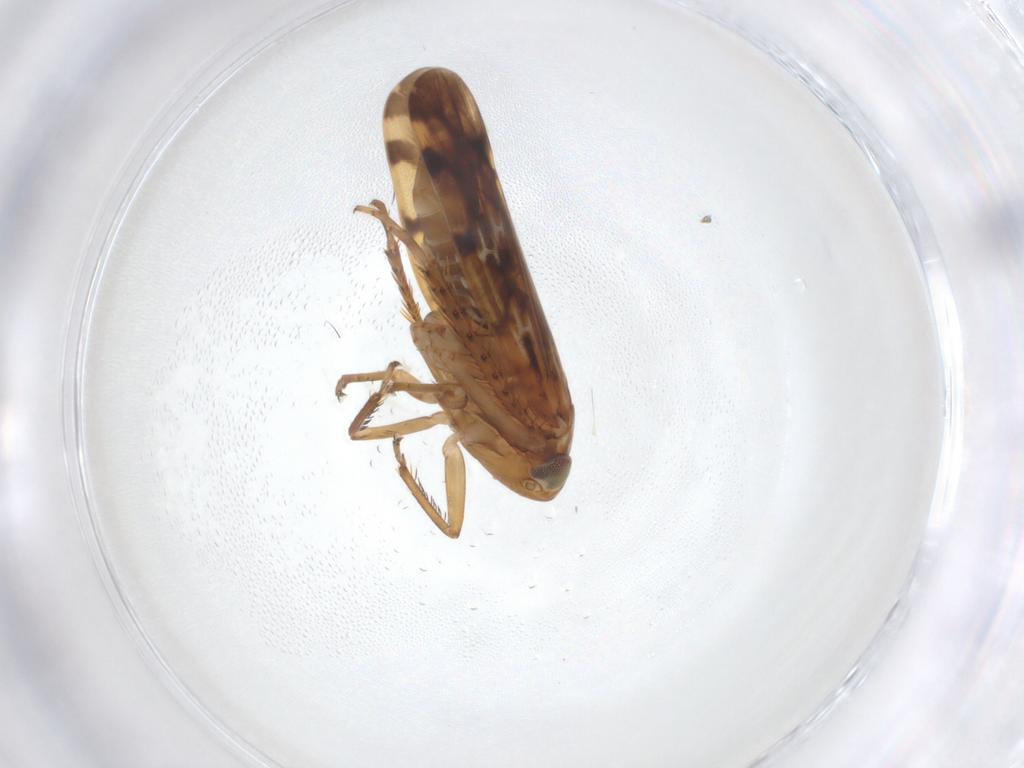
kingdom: Animalia
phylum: Arthropoda
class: Insecta
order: Hemiptera
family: Cicadellidae
